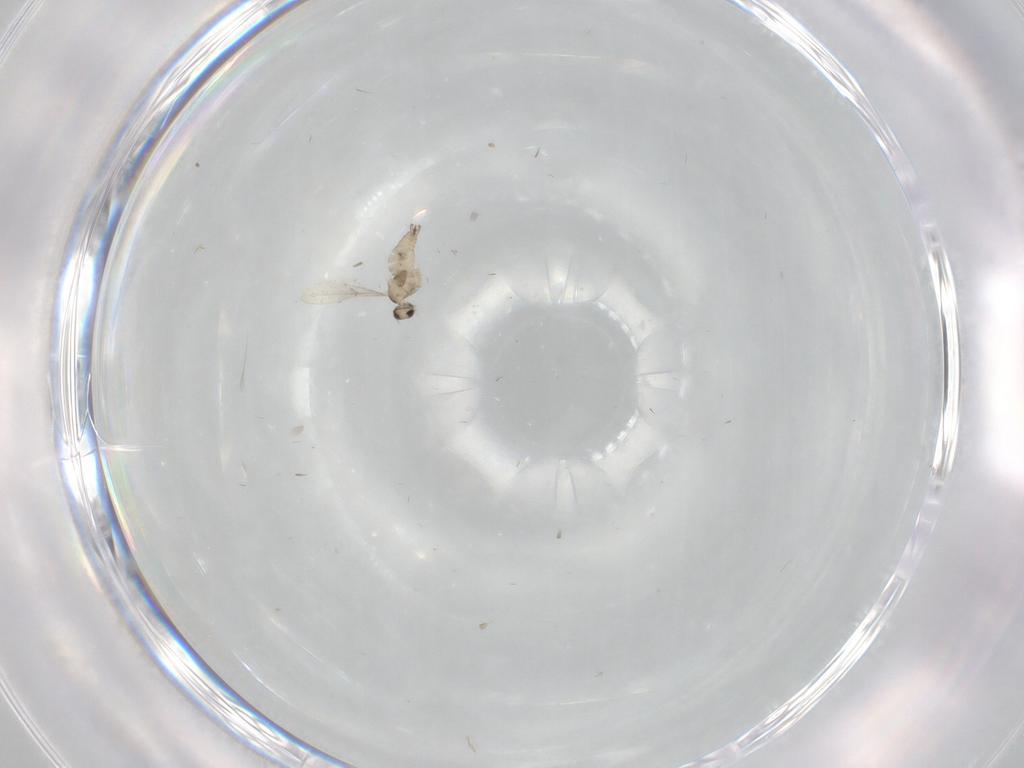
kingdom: Animalia
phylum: Arthropoda
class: Insecta
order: Diptera
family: Cecidomyiidae
